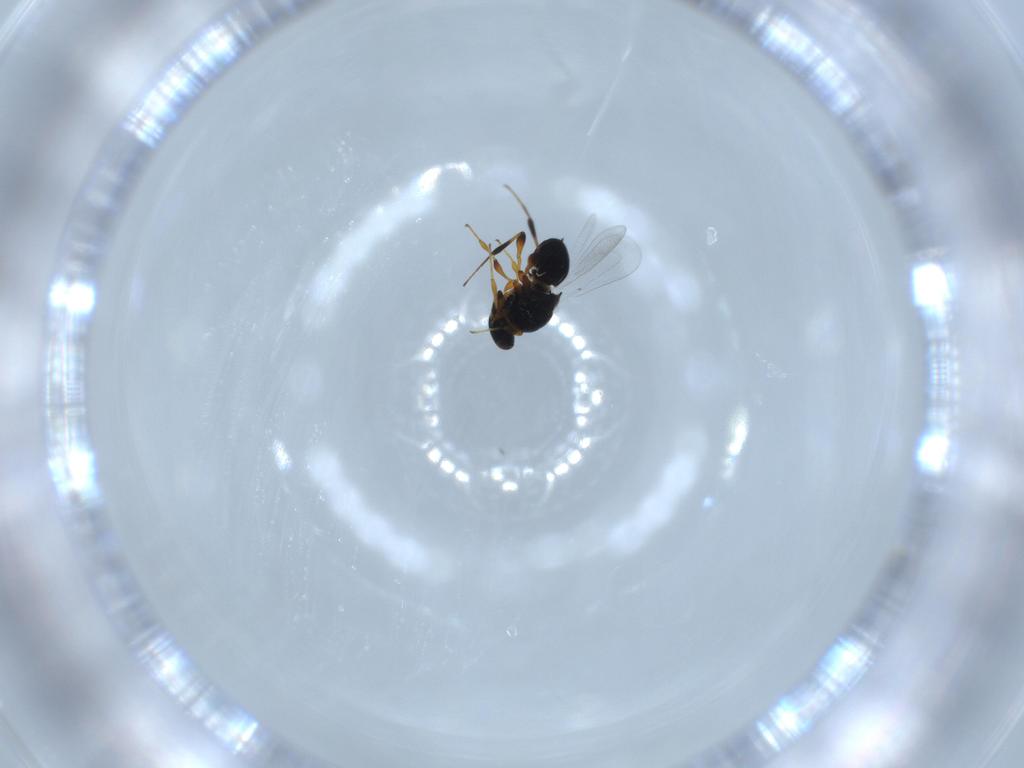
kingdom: Animalia
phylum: Arthropoda
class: Insecta
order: Hymenoptera
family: Platygastridae
